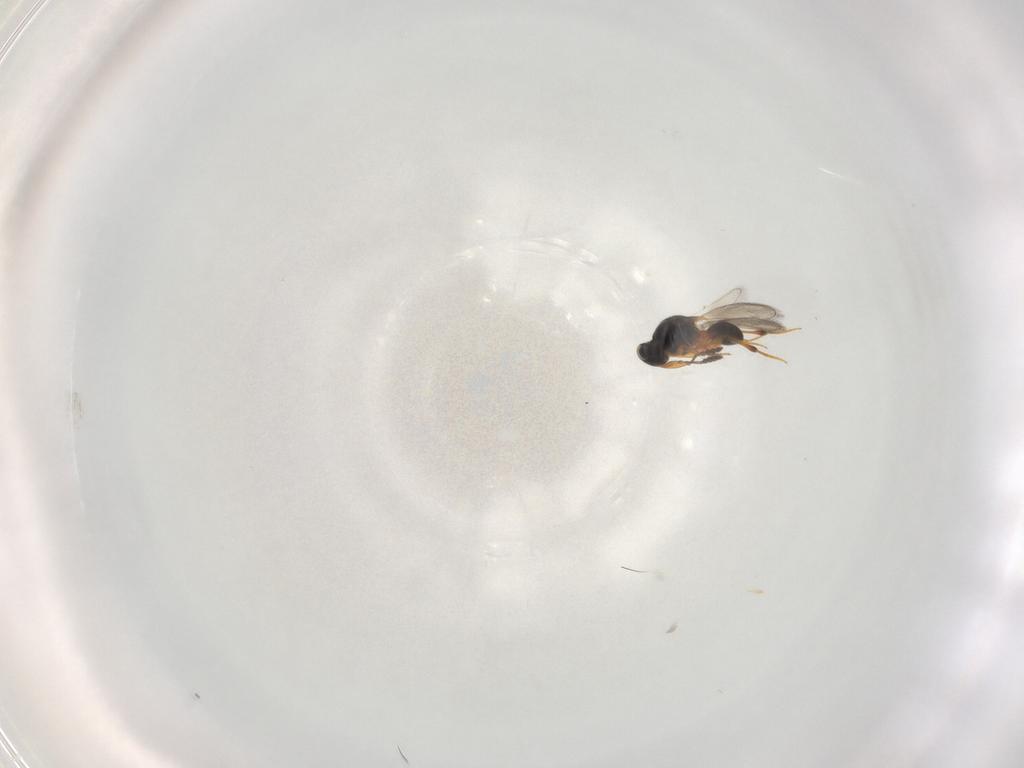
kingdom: Animalia
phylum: Arthropoda
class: Insecta
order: Hymenoptera
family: Platygastridae
